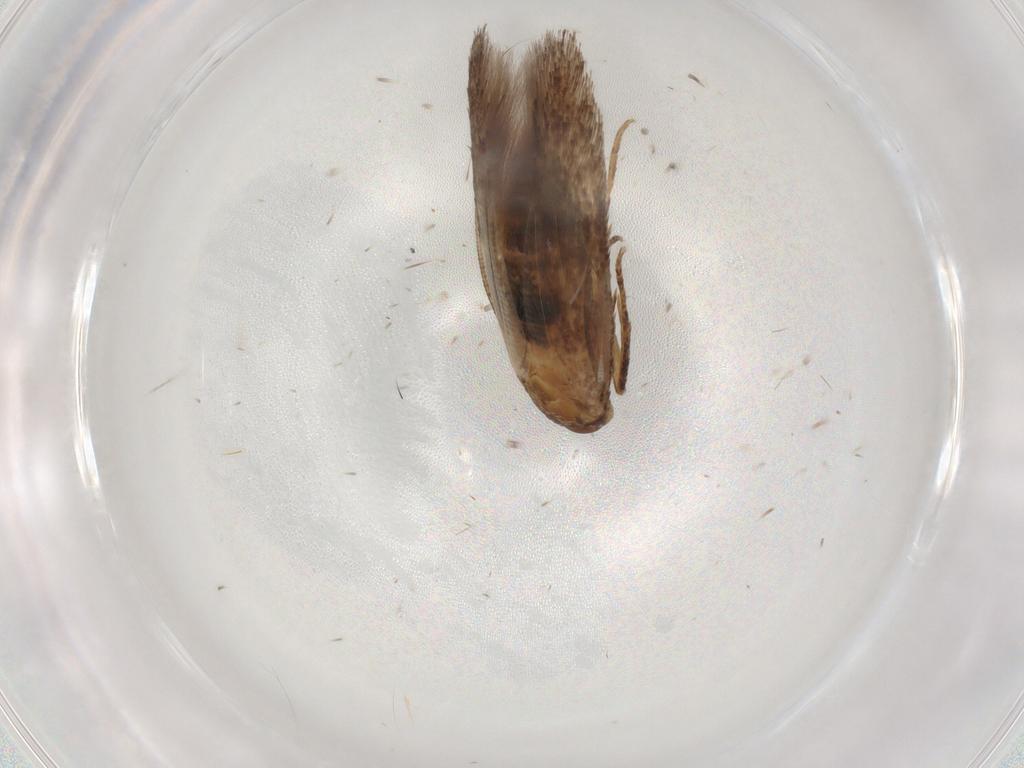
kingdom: Animalia
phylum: Arthropoda
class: Insecta
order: Lepidoptera
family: Cosmopterigidae
